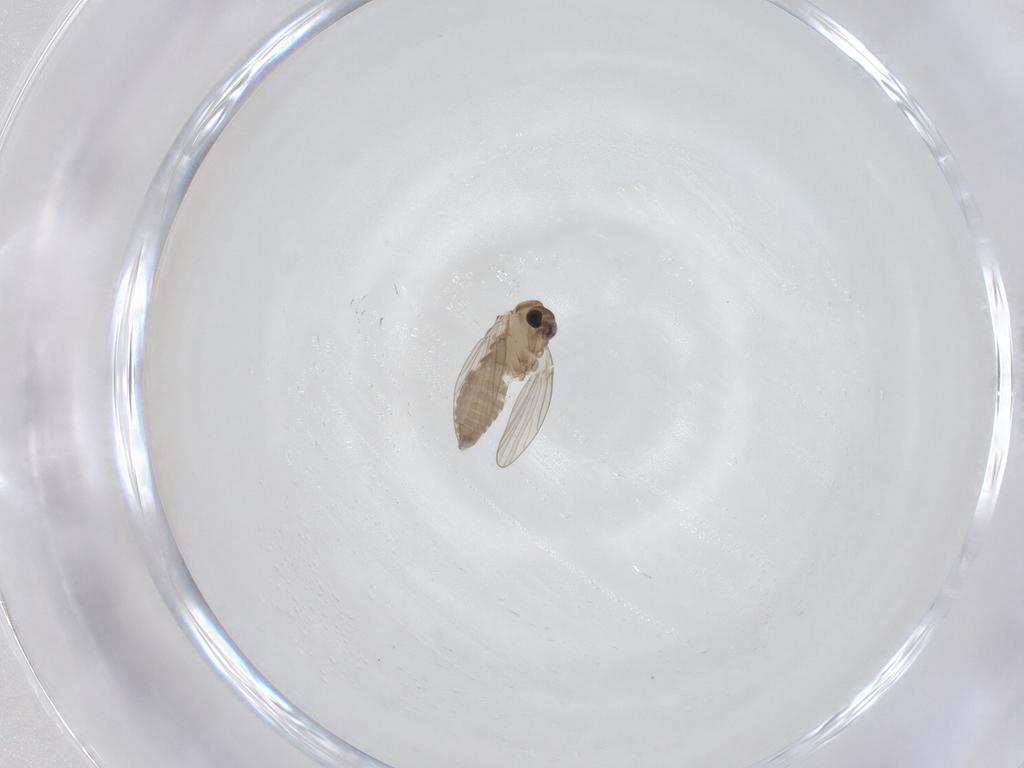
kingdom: Animalia
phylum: Arthropoda
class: Insecta
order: Diptera
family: Psychodidae
